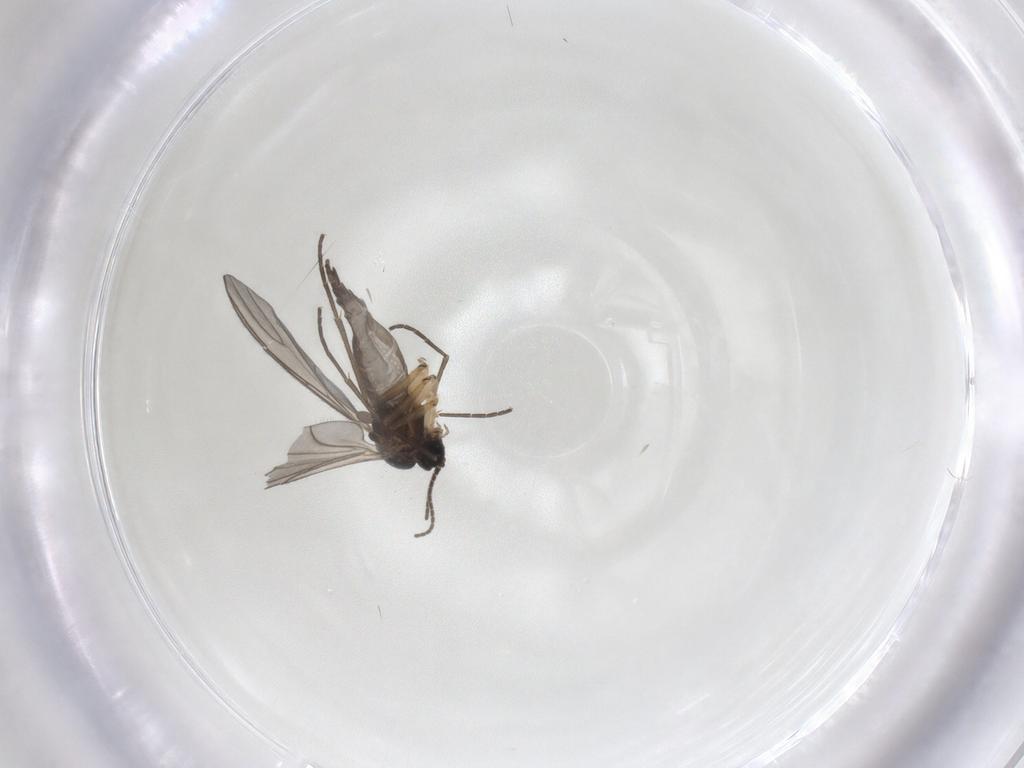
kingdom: Animalia
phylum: Arthropoda
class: Insecta
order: Diptera
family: Sciaridae
